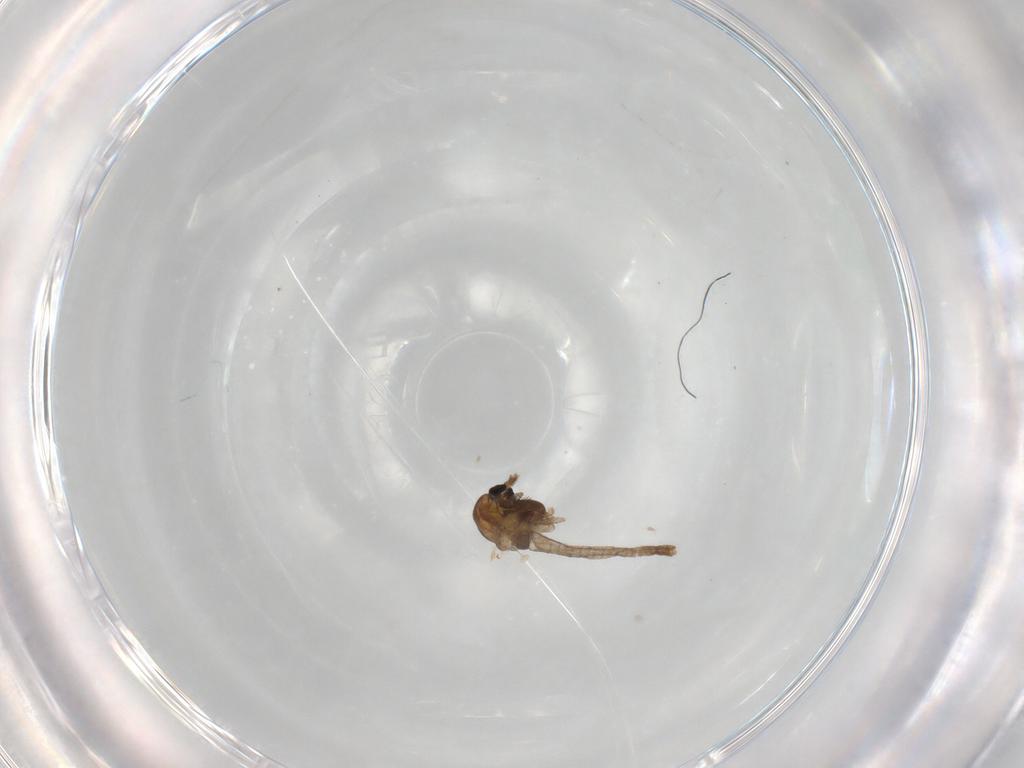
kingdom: Animalia
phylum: Arthropoda
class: Insecta
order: Diptera
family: Chironomidae
